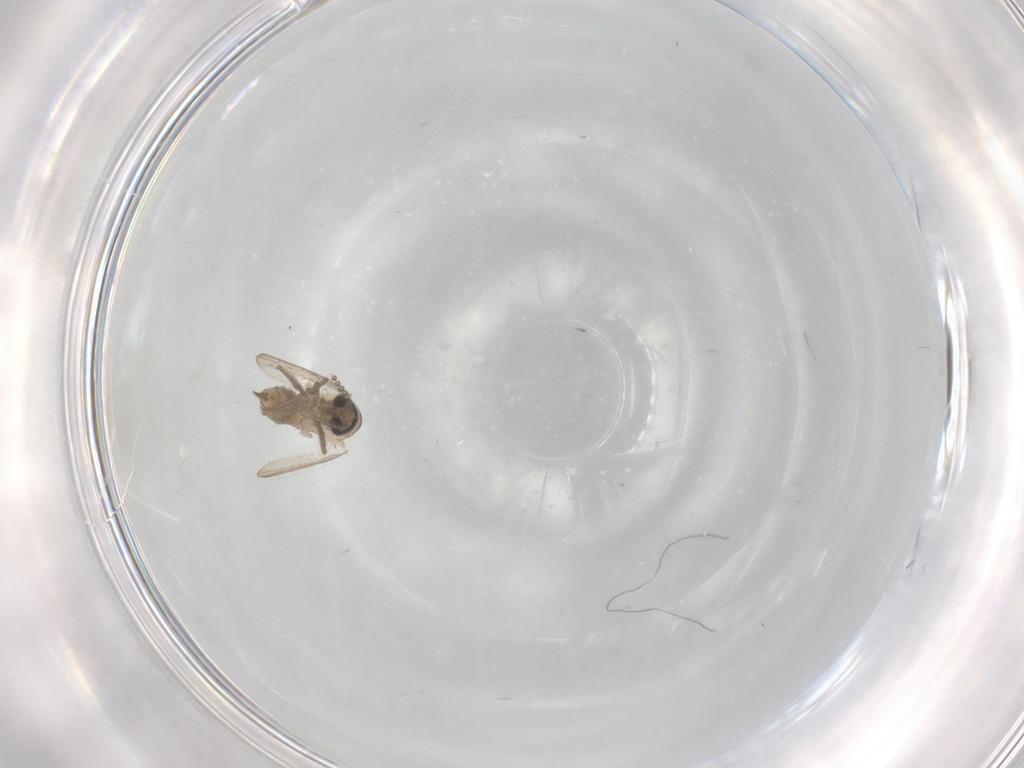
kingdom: Animalia
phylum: Arthropoda
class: Insecta
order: Diptera
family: Psychodidae
